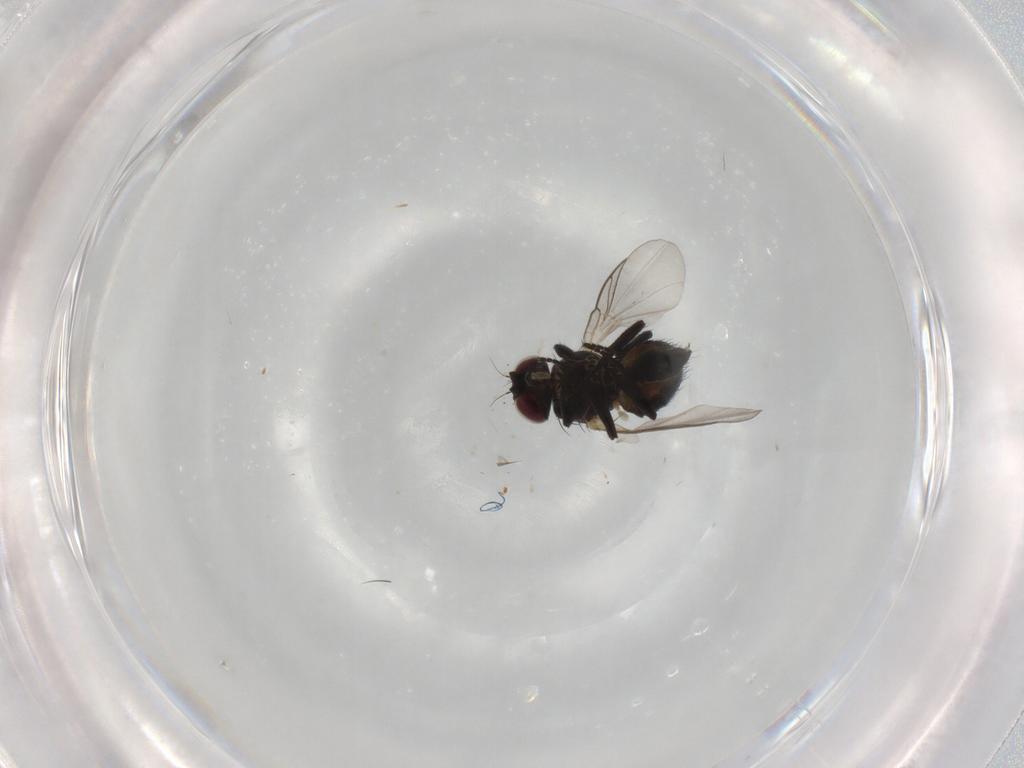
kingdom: Animalia
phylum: Arthropoda
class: Insecta
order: Diptera
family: Agromyzidae
